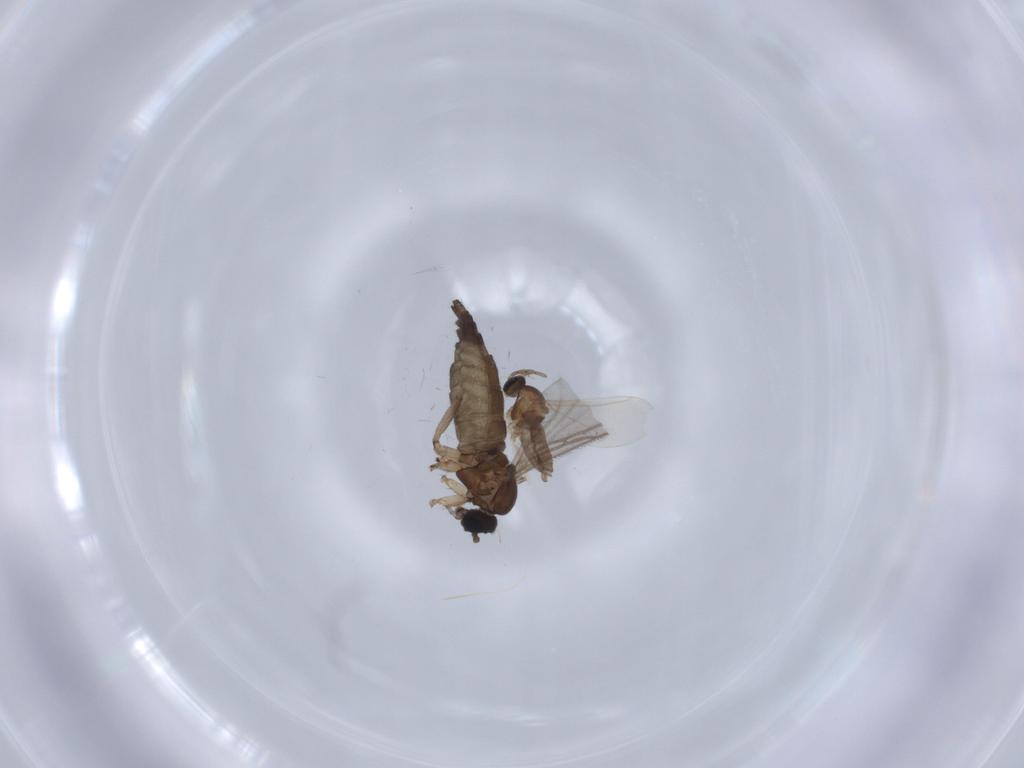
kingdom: Animalia
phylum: Arthropoda
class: Insecta
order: Diptera
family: Sciaridae
